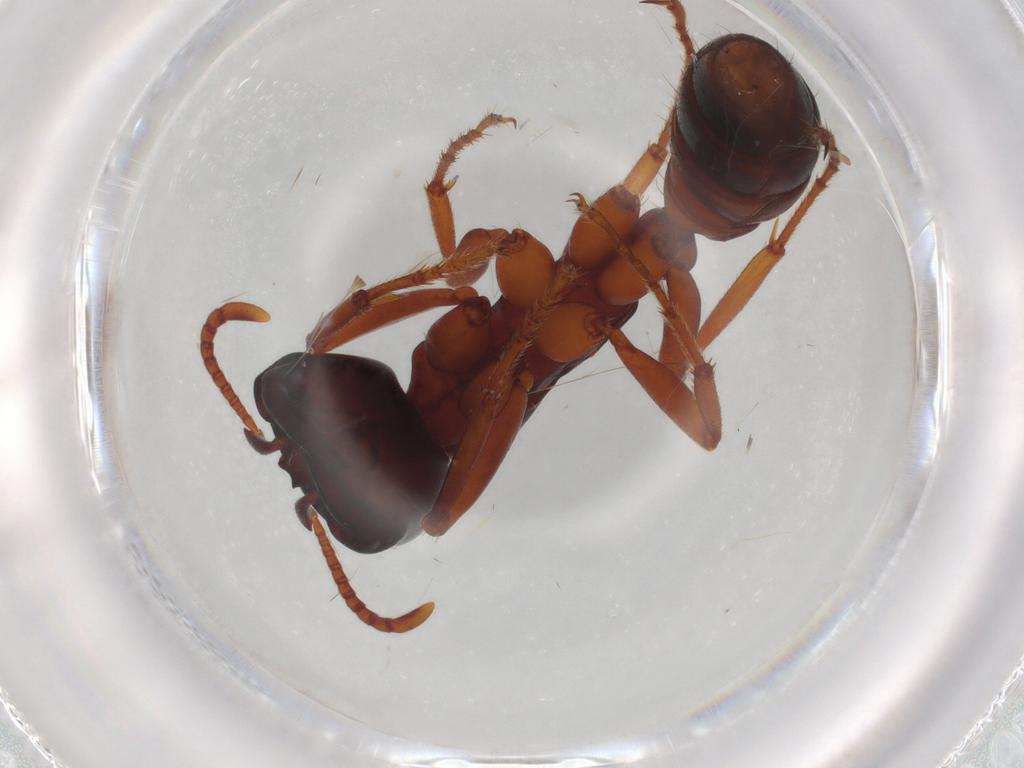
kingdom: Animalia
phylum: Arthropoda
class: Insecta
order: Hymenoptera
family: Formicidae
